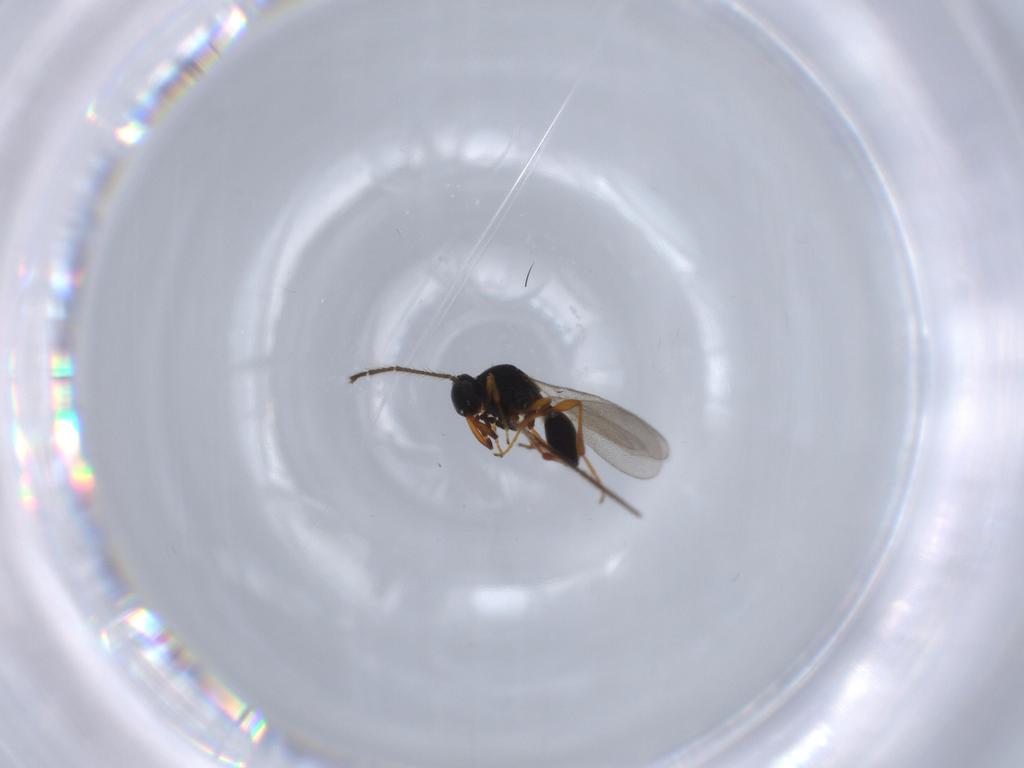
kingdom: Animalia
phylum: Arthropoda
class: Insecta
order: Hymenoptera
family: Platygastridae
